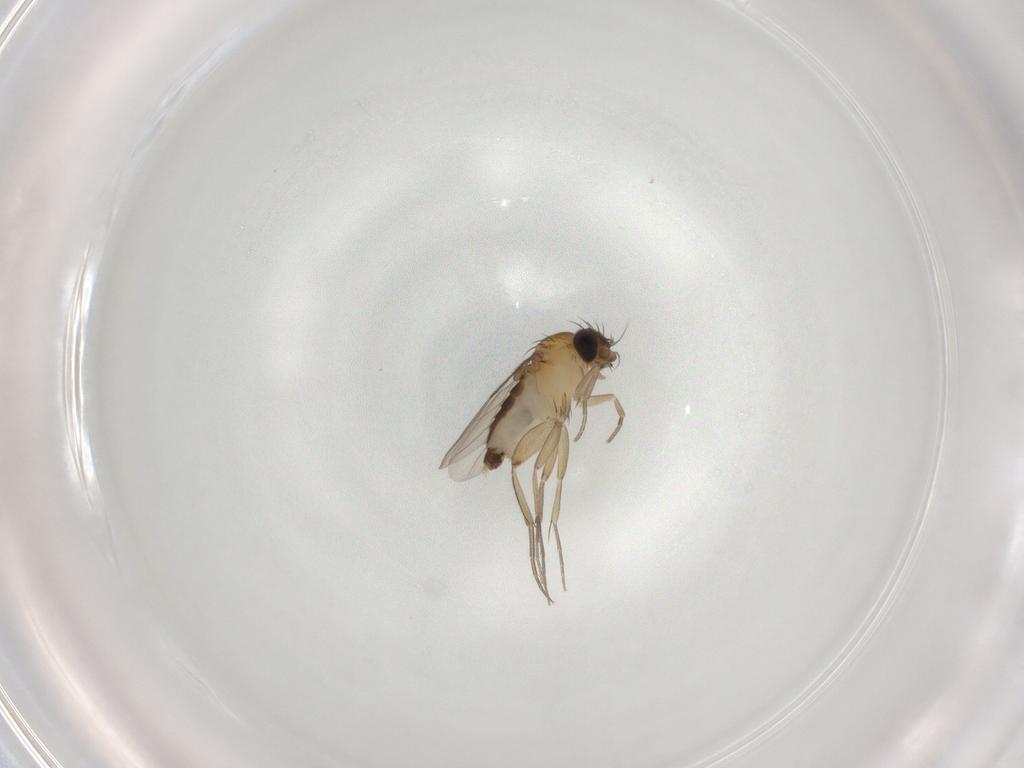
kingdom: Animalia
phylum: Arthropoda
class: Insecta
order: Diptera
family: Phoridae
